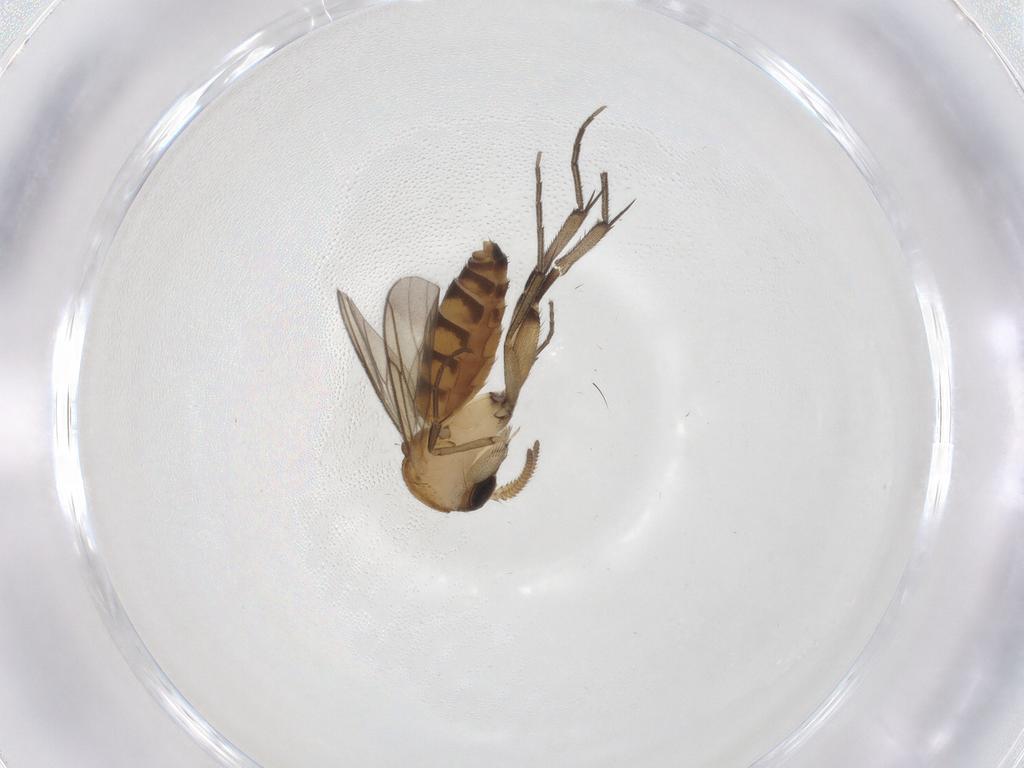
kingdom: Animalia
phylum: Arthropoda
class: Insecta
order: Diptera
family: Mycetophilidae
